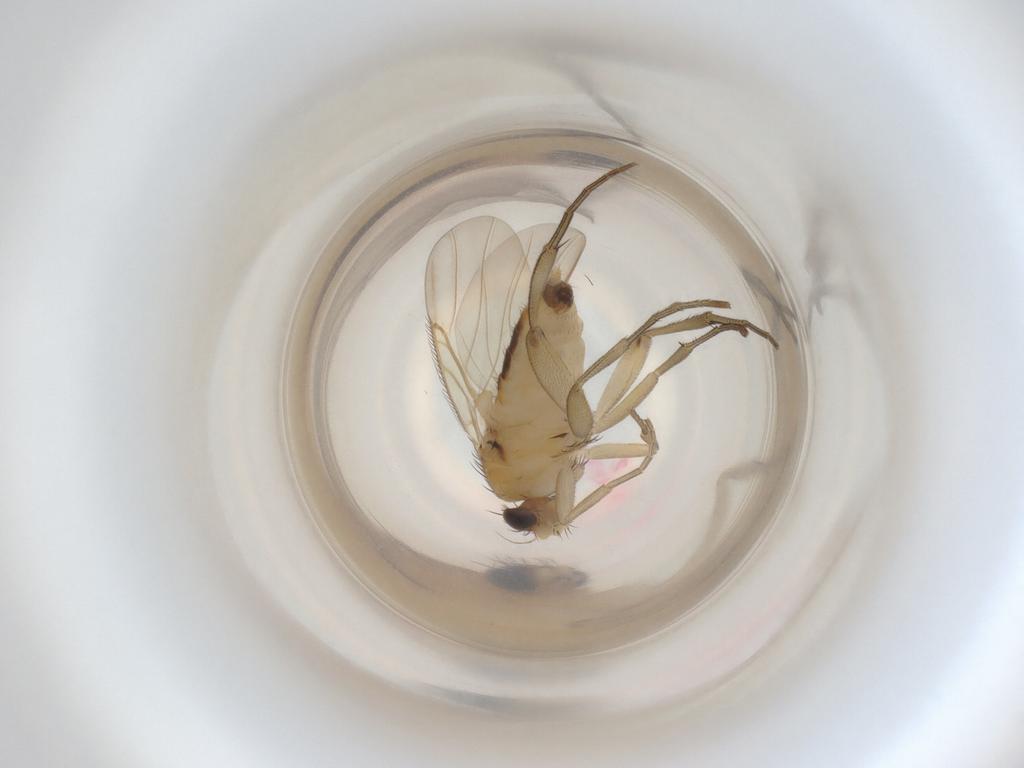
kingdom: Animalia
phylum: Arthropoda
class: Insecta
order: Diptera
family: Phoridae
